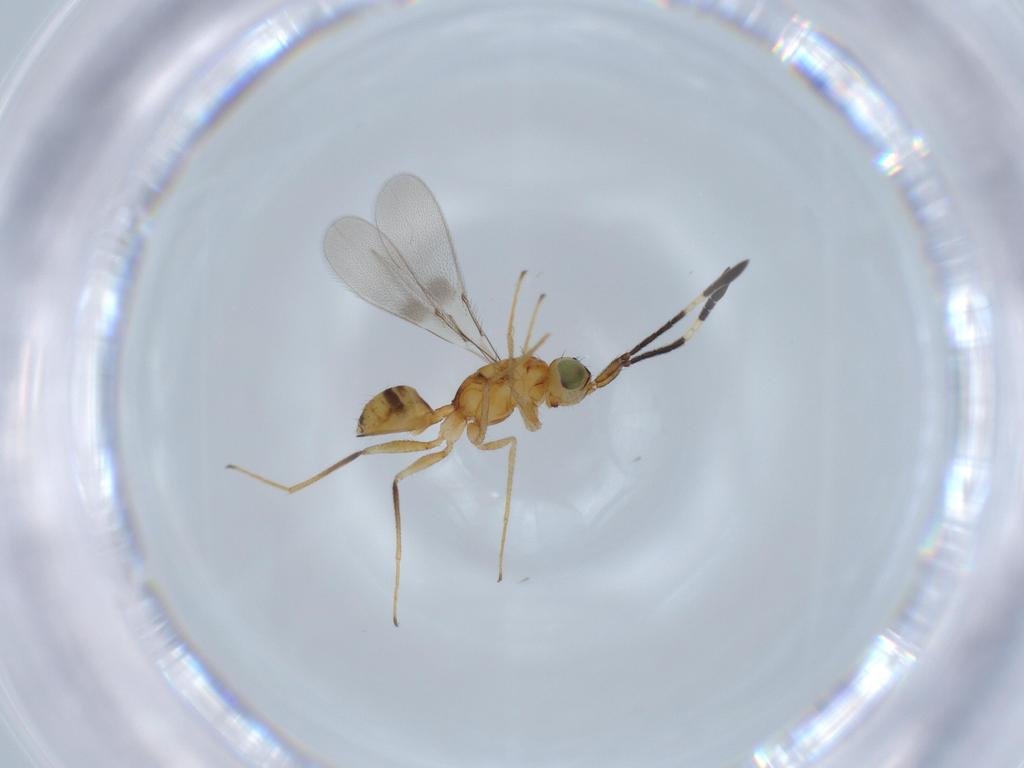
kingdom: Animalia
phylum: Arthropoda
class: Insecta
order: Hymenoptera
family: Mymaridae
